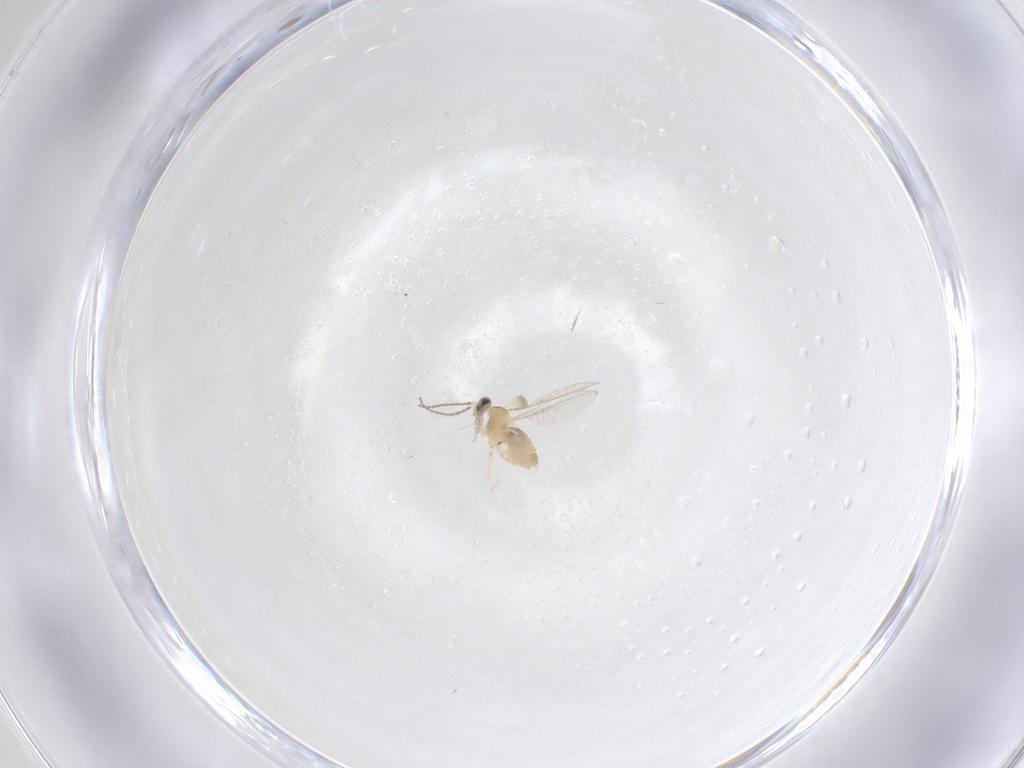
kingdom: Animalia
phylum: Arthropoda
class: Insecta
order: Diptera
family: Cecidomyiidae
